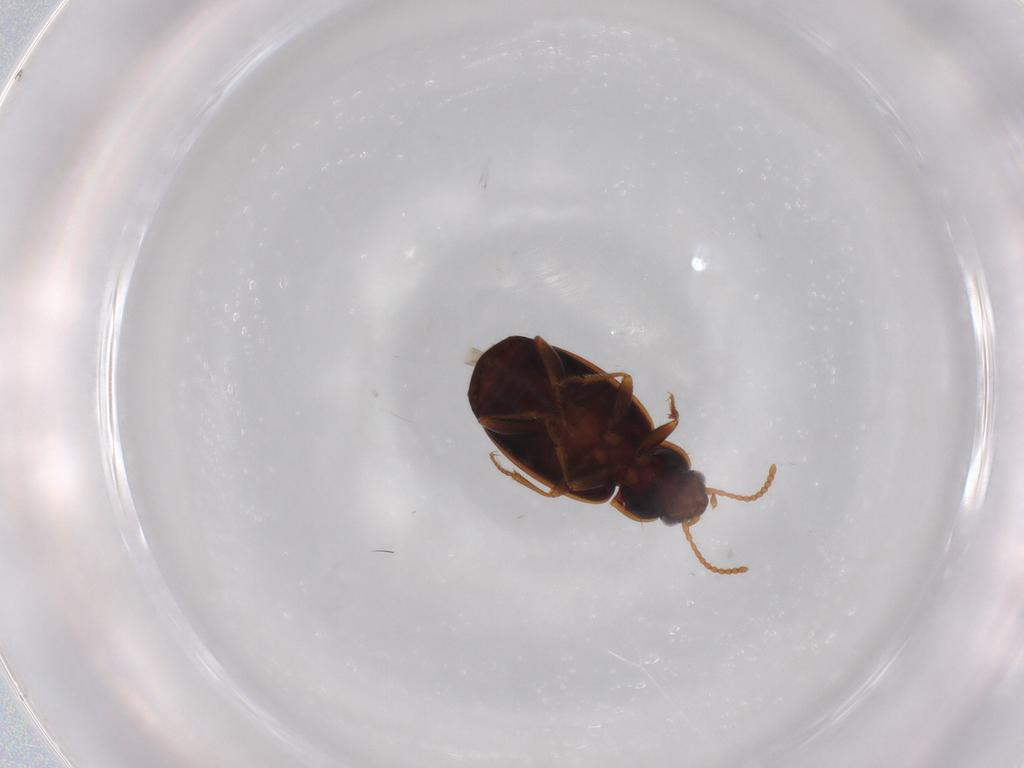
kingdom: Animalia
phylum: Arthropoda
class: Insecta
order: Coleoptera
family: Carabidae
